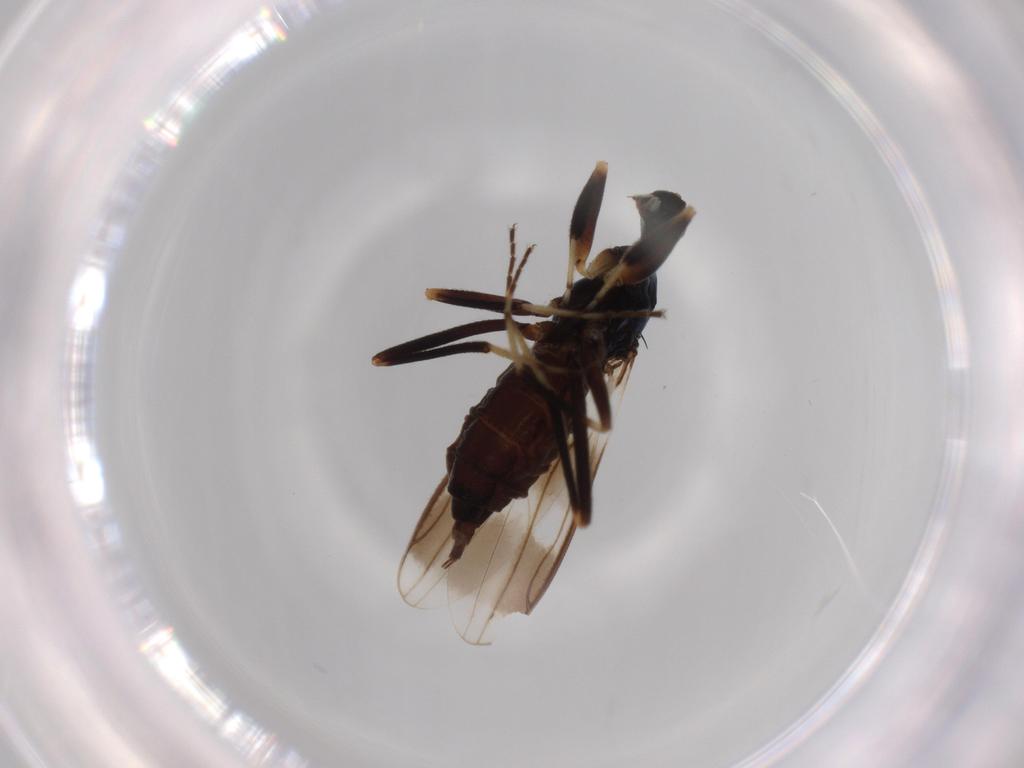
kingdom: Animalia
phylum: Arthropoda
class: Insecta
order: Diptera
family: Hybotidae
